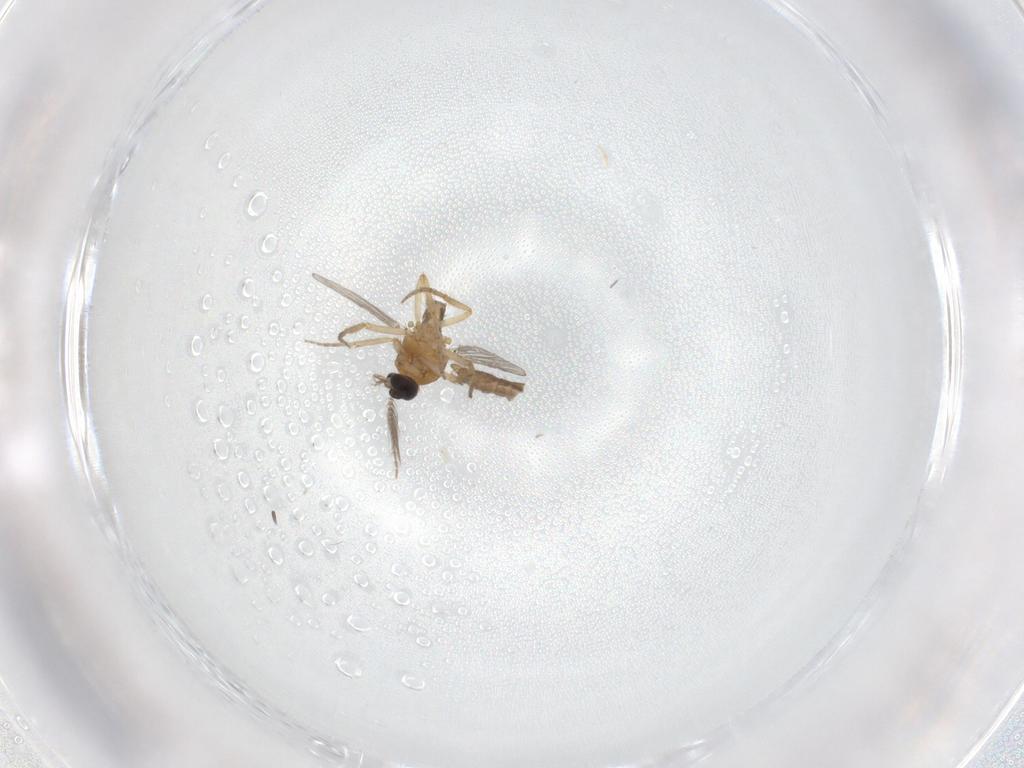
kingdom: Animalia
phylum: Arthropoda
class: Insecta
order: Diptera
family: Ceratopogonidae
